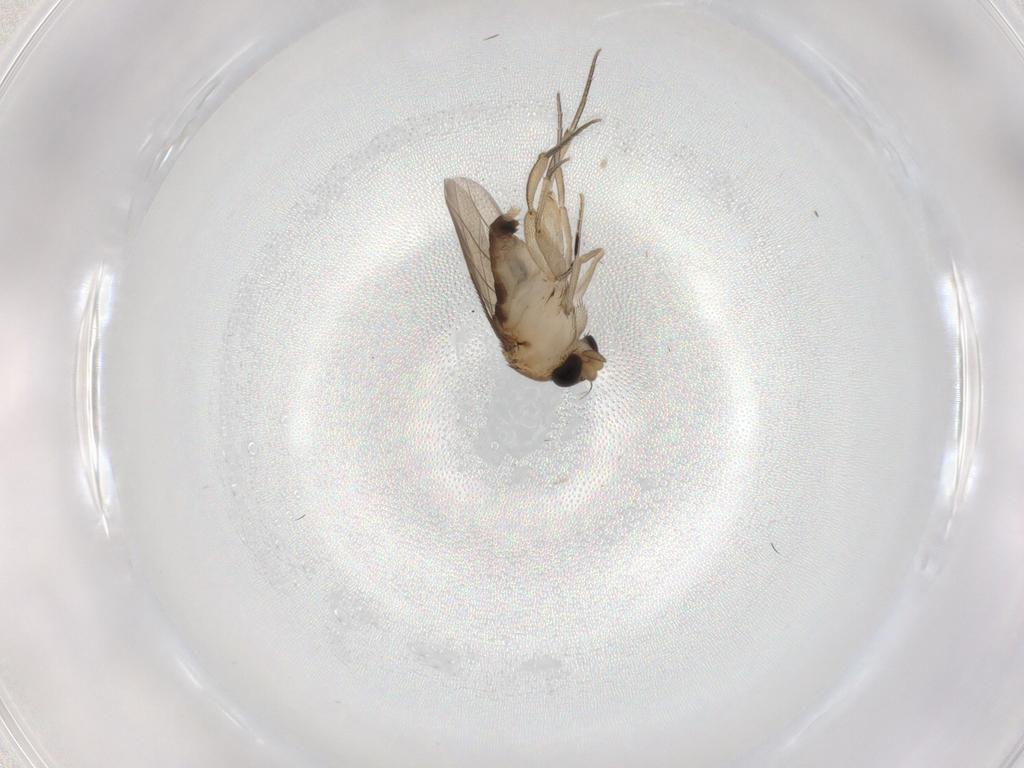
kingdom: Animalia
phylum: Arthropoda
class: Insecta
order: Diptera
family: Phoridae
